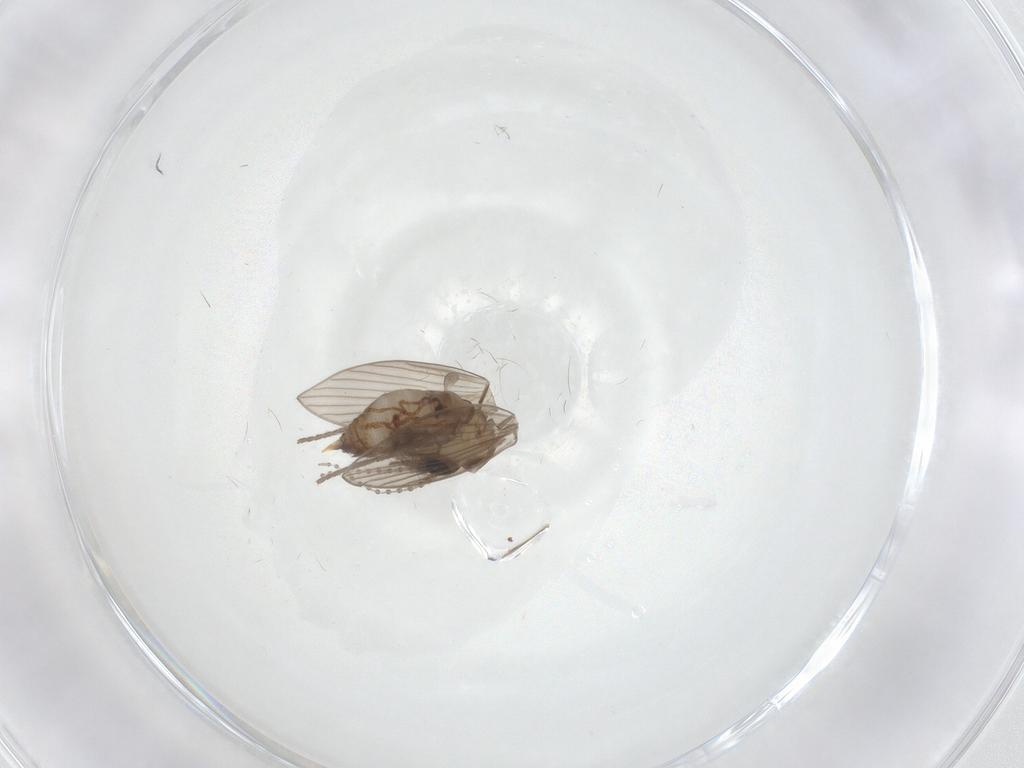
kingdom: Animalia
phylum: Arthropoda
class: Insecta
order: Diptera
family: Psychodidae
